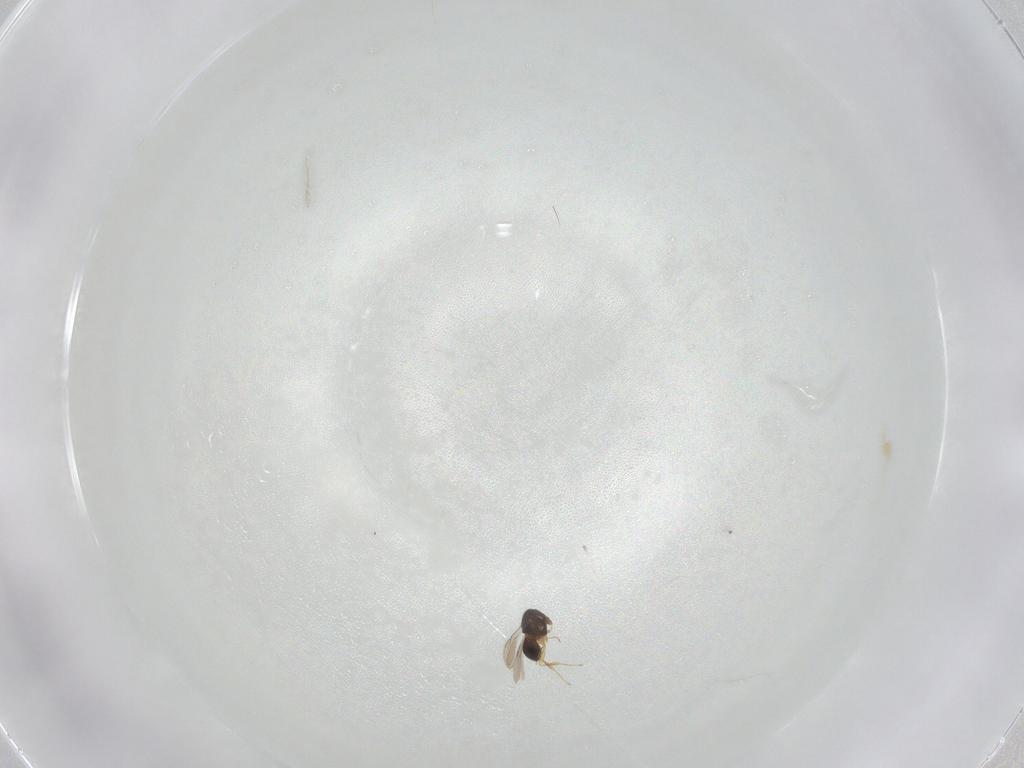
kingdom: Animalia
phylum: Arthropoda
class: Insecta
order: Hymenoptera
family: Scelionidae
